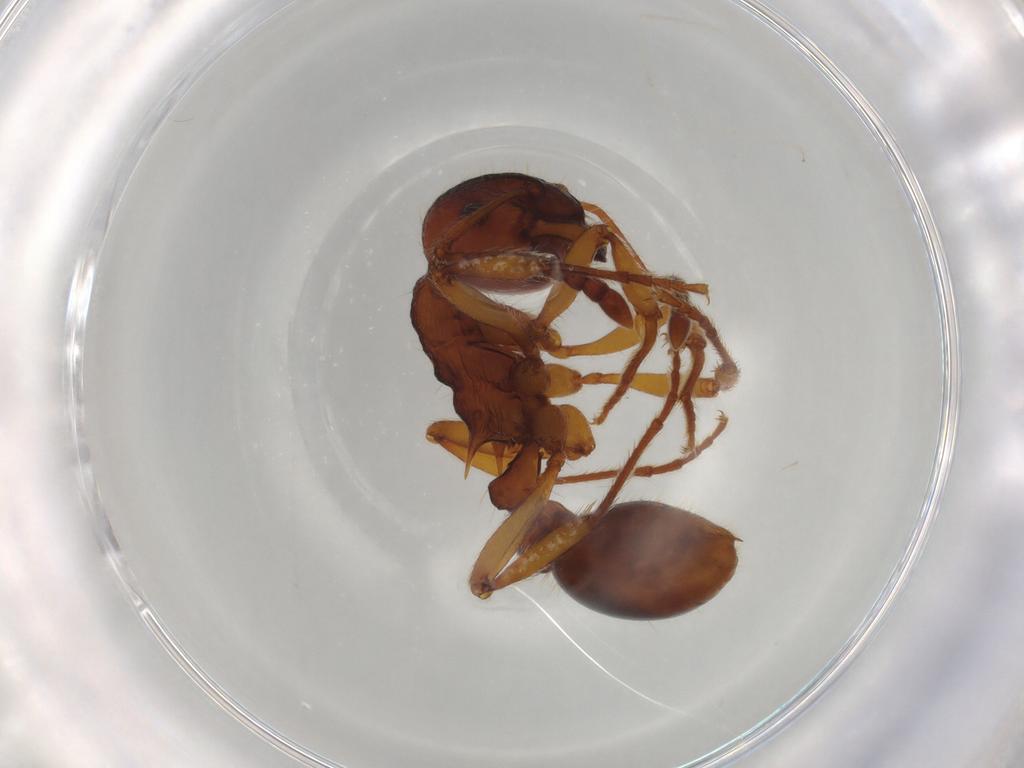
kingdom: Animalia
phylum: Arthropoda
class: Insecta
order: Hymenoptera
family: Formicidae
